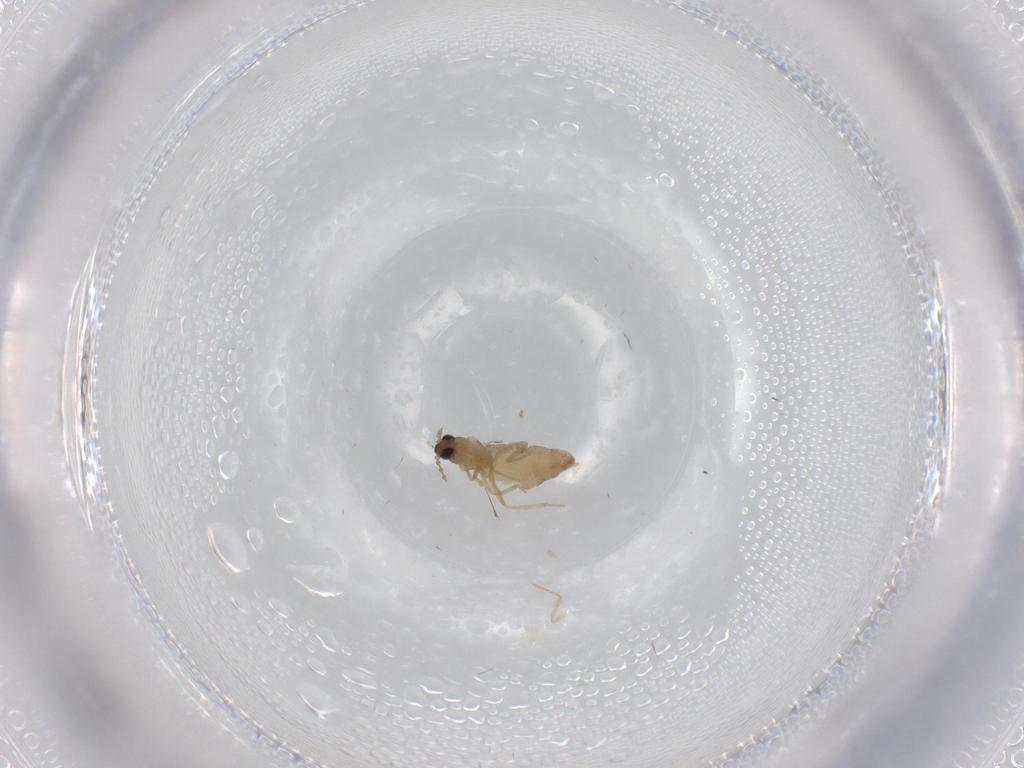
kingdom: Animalia
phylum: Arthropoda
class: Insecta
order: Diptera
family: Cecidomyiidae
